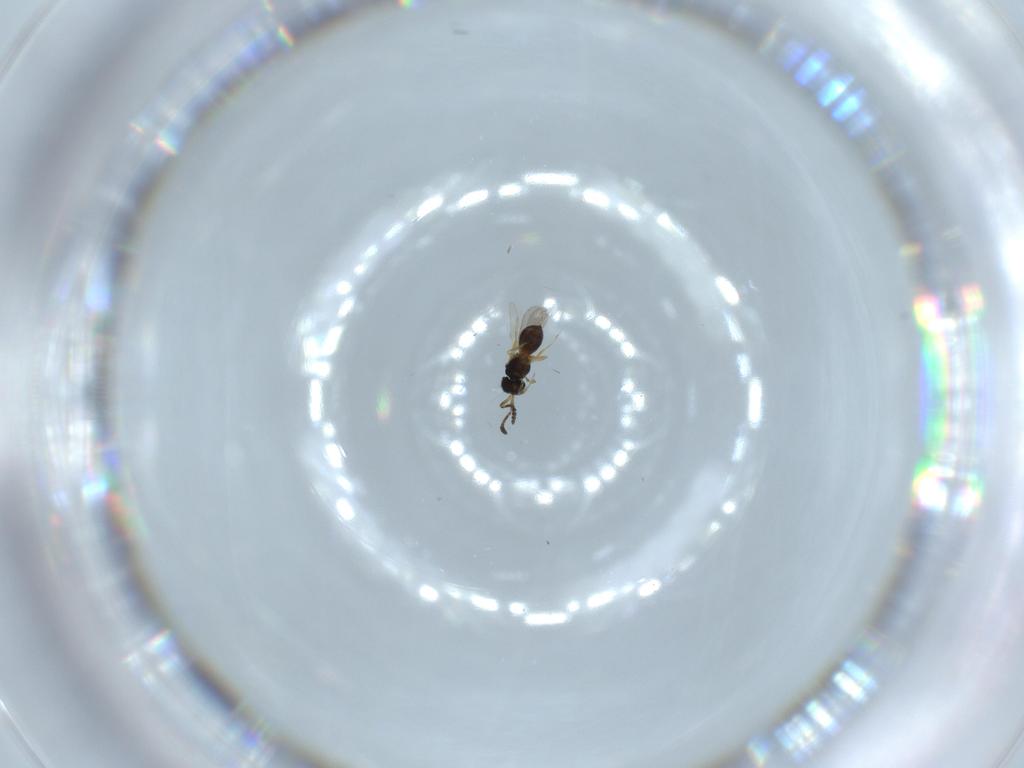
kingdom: Animalia
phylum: Arthropoda
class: Insecta
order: Hymenoptera
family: Scelionidae
